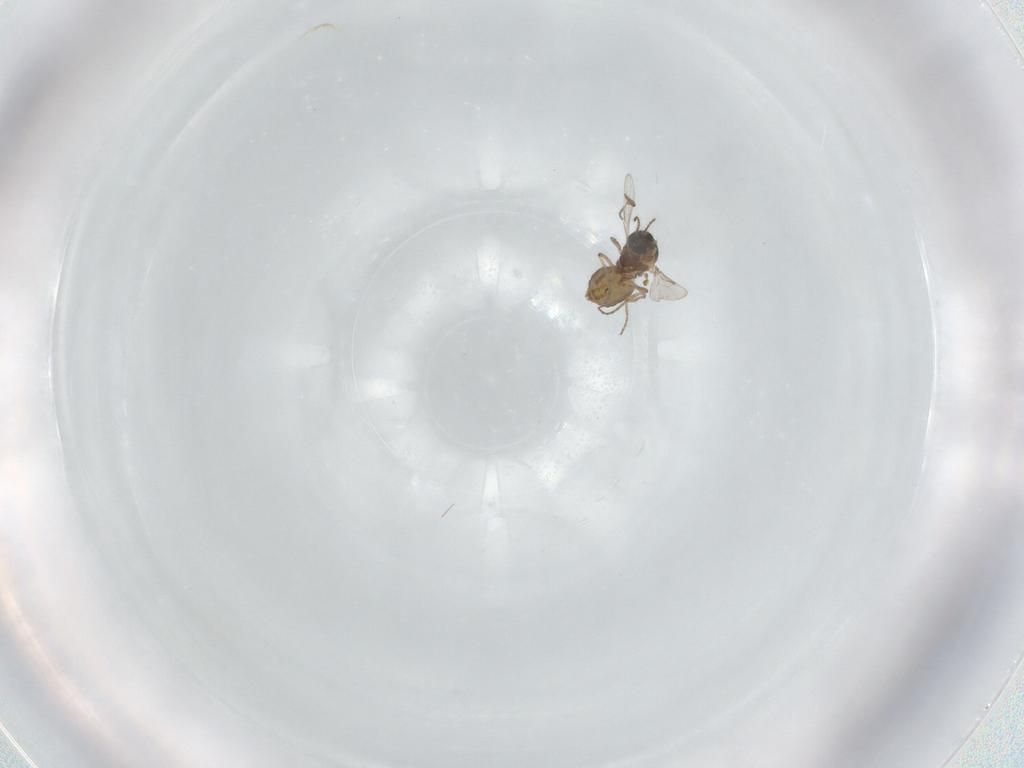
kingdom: Animalia
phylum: Arthropoda
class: Insecta
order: Diptera
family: Ceratopogonidae
